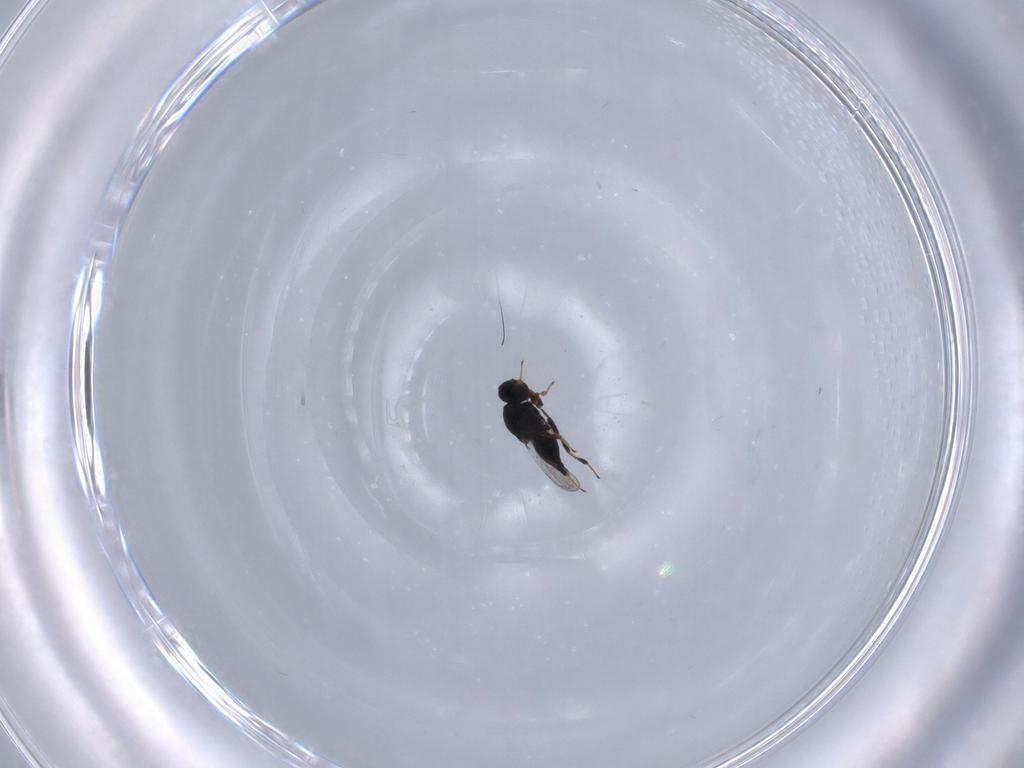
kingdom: Animalia
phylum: Arthropoda
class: Insecta
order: Hymenoptera
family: Platygastridae
